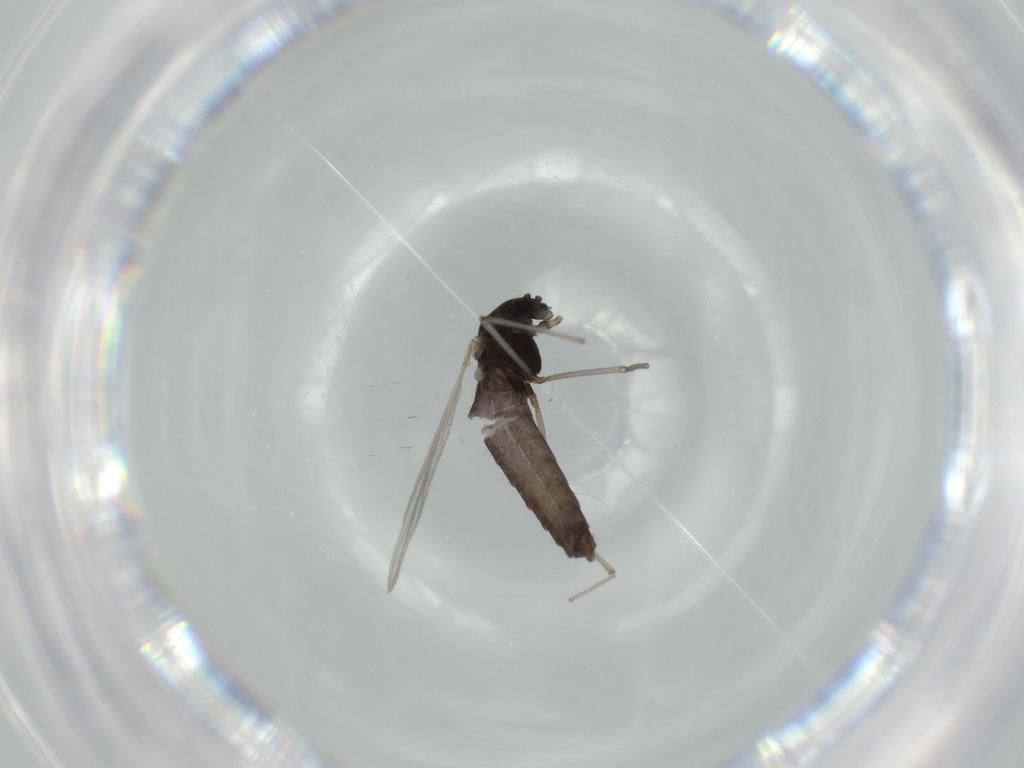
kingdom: Animalia
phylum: Arthropoda
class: Insecta
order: Diptera
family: Chironomidae
